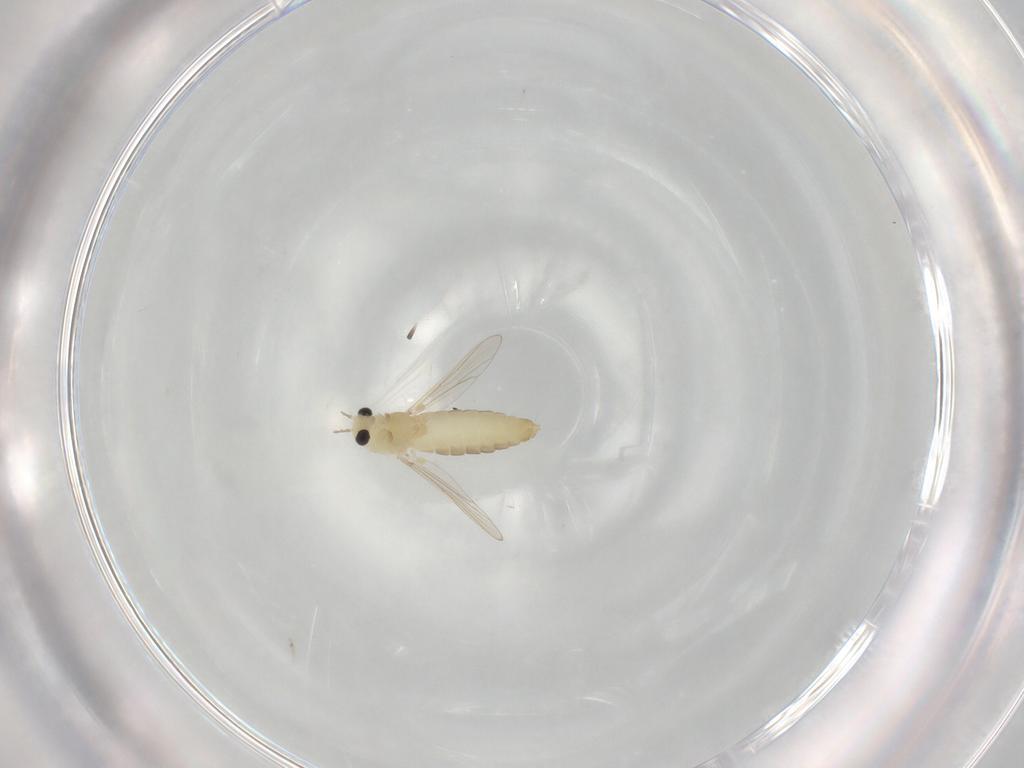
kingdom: Animalia
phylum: Arthropoda
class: Insecta
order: Diptera
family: Chironomidae
